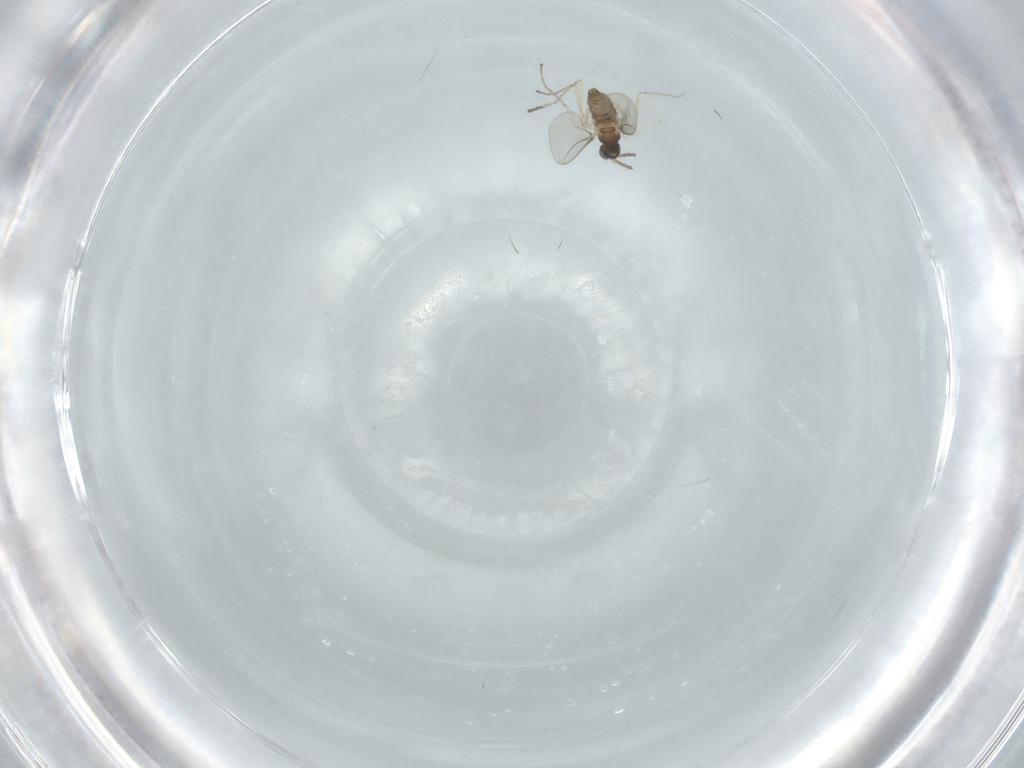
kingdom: Animalia
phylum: Arthropoda
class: Insecta
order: Diptera
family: Cecidomyiidae
